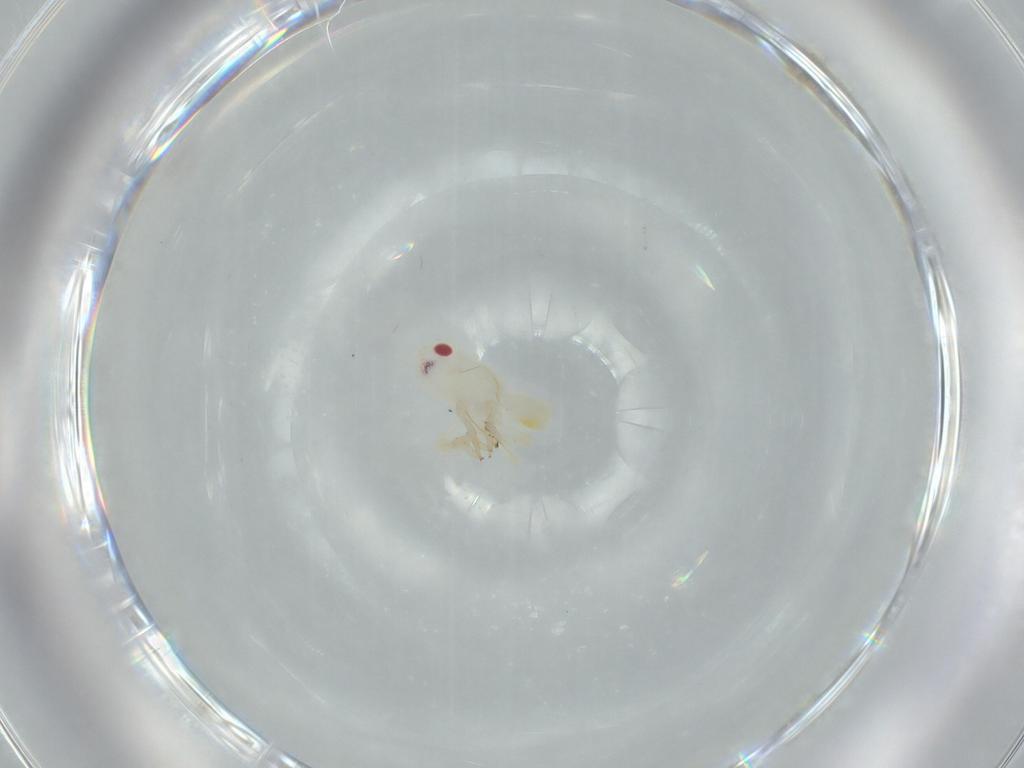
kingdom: Animalia
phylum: Arthropoda
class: Insecta
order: Hemiptera
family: Tropiduchidae
